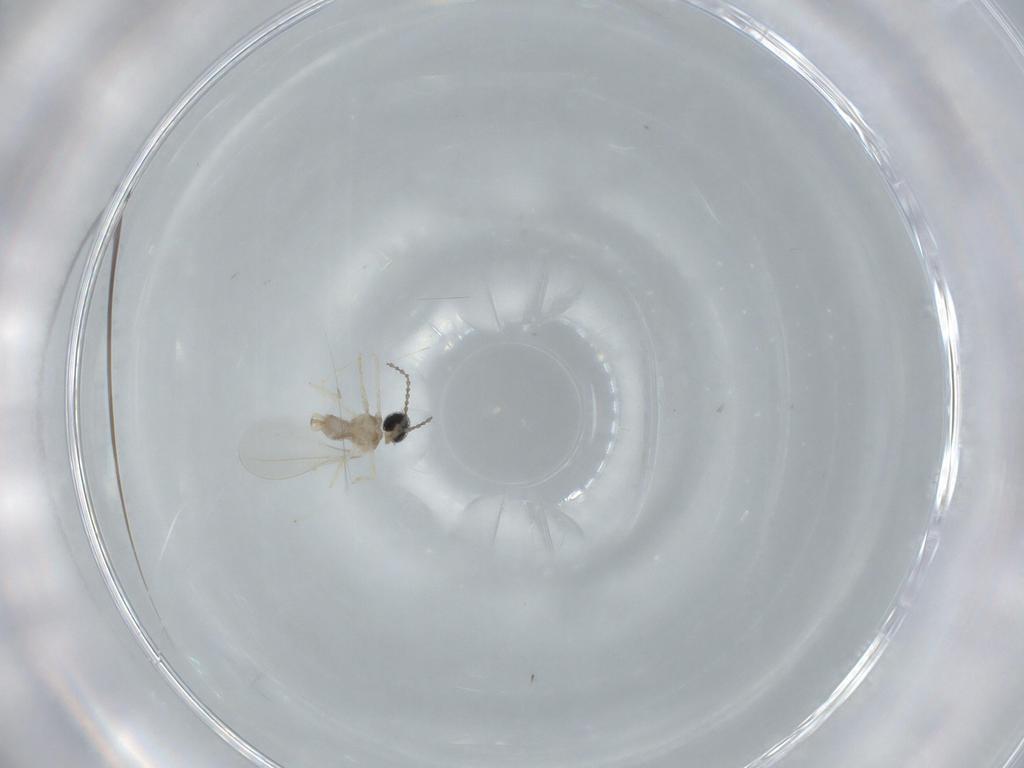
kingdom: Animalia
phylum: Arthropoda
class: Insecta
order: Diptera
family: Cecidomyiidae
